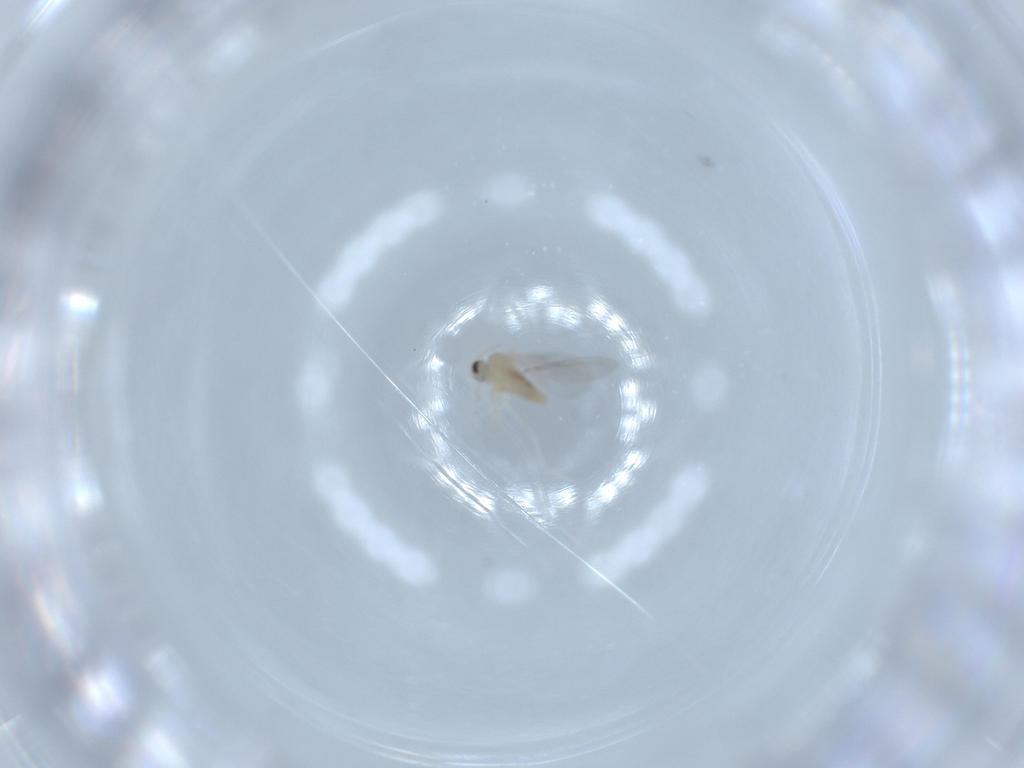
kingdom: Animalia
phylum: Arthropoda
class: Insecta
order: Diptera
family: Cecidomyiidae
